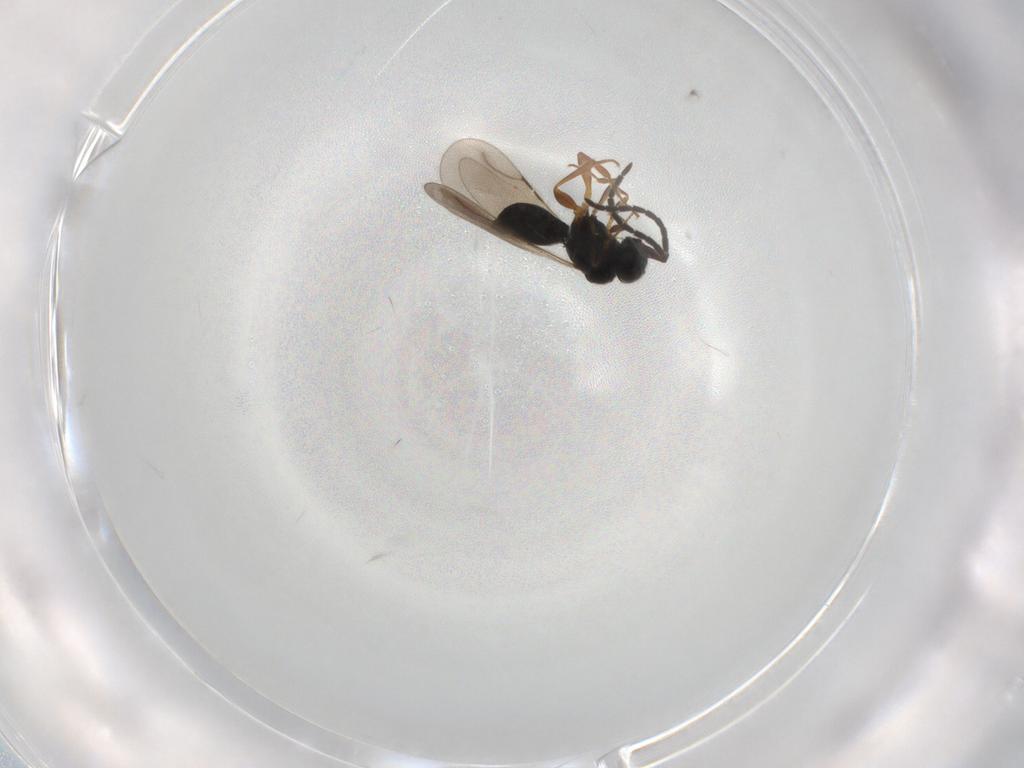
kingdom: Animalia
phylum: Arthropoda
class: Insecta
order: Hymenoptera
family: Ceraphronidae
